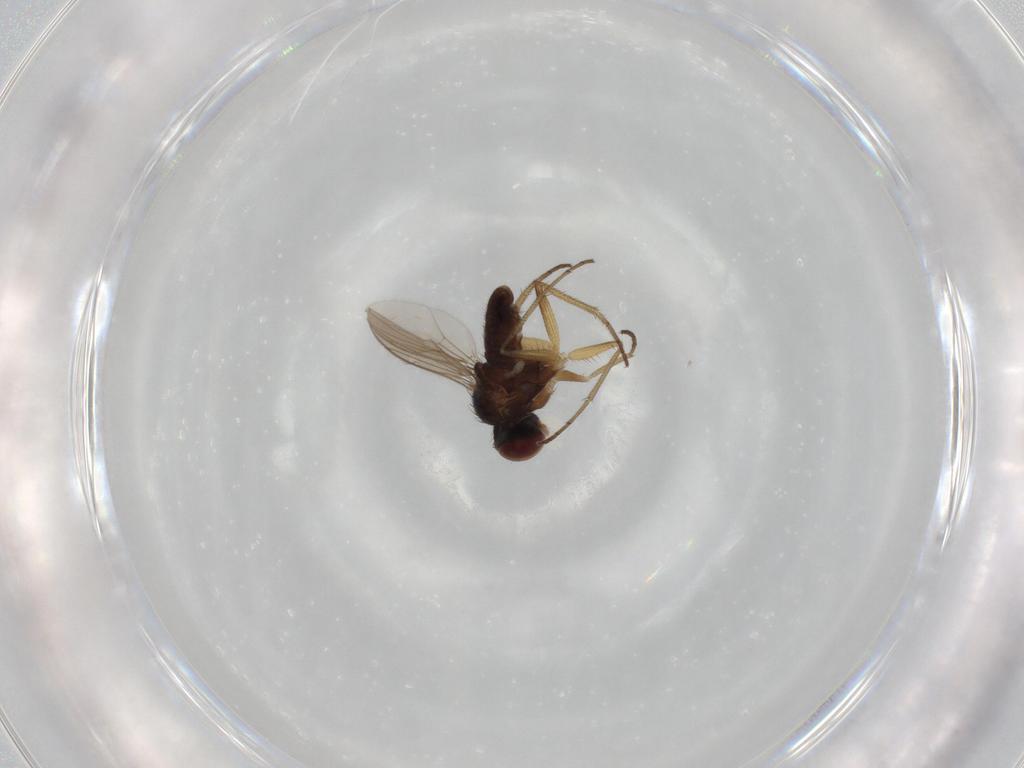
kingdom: Animalia
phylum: Arthropoda
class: Insecta
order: Diptera
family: Dolichopodidae
